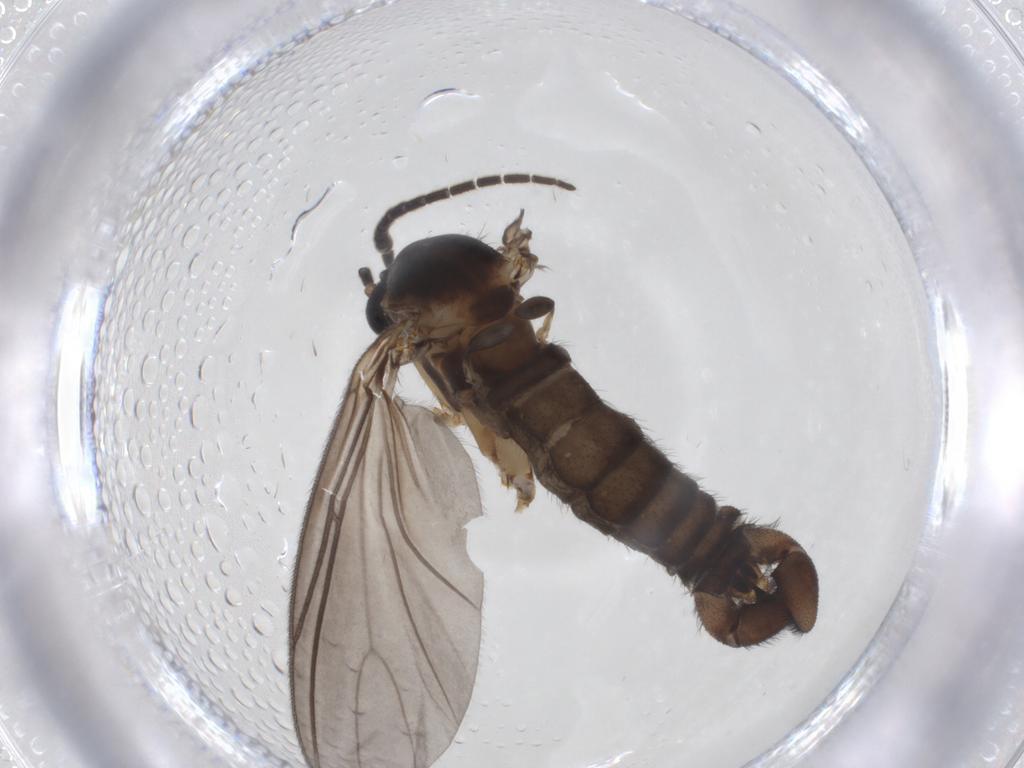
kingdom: Animalia
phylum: Arthropoda
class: Insecta
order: Diptera
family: Sciaridae
